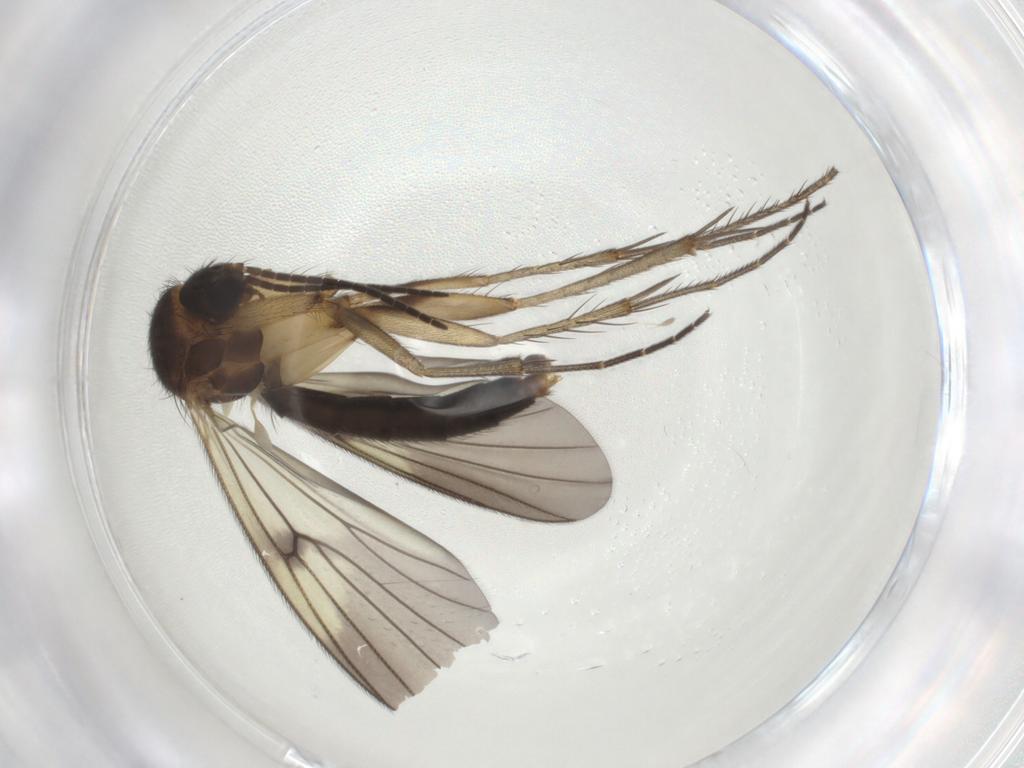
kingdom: Animalia
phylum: Arthropoda
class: Insecta
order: Diptera
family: Mycetophilidae
